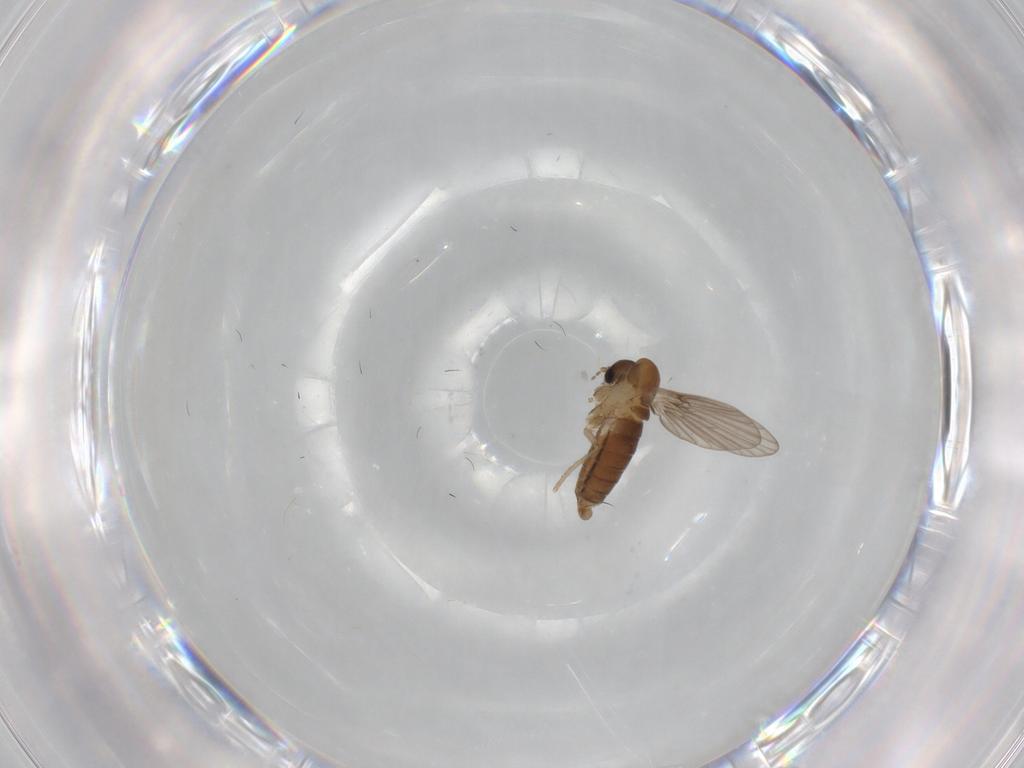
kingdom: Animalia
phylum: Arthropoda
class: Insecta
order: Diptera
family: Psychodidae
